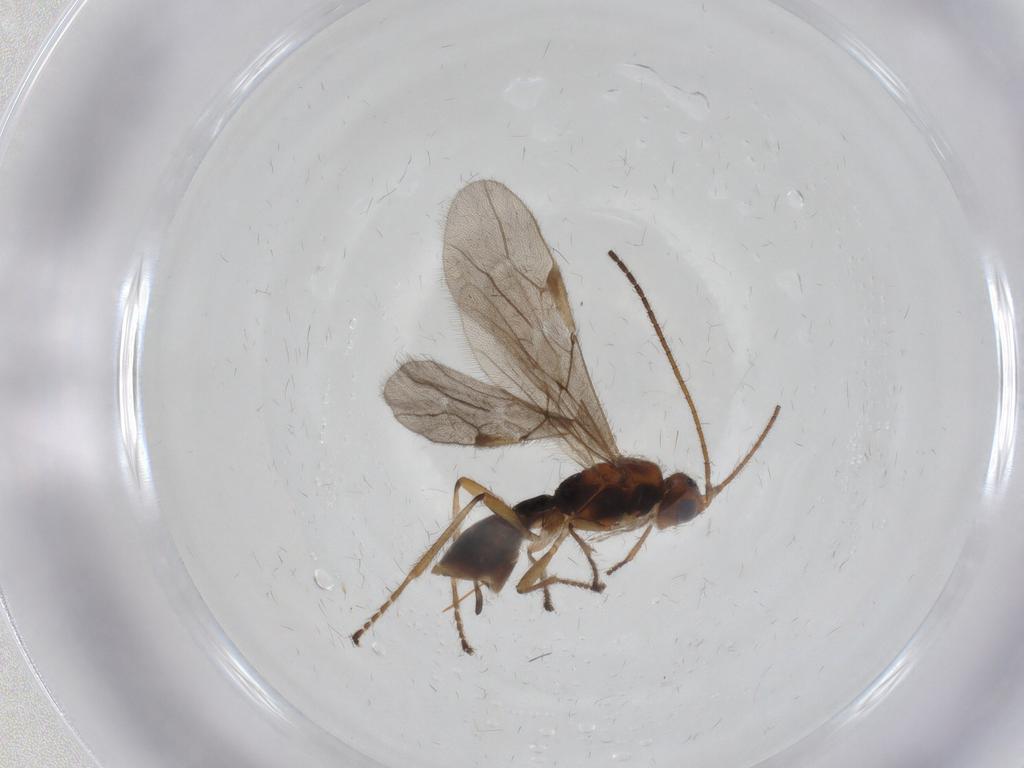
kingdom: Animalia
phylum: Arthropoda
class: Insecta
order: Hymenoptera
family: Braconidae
